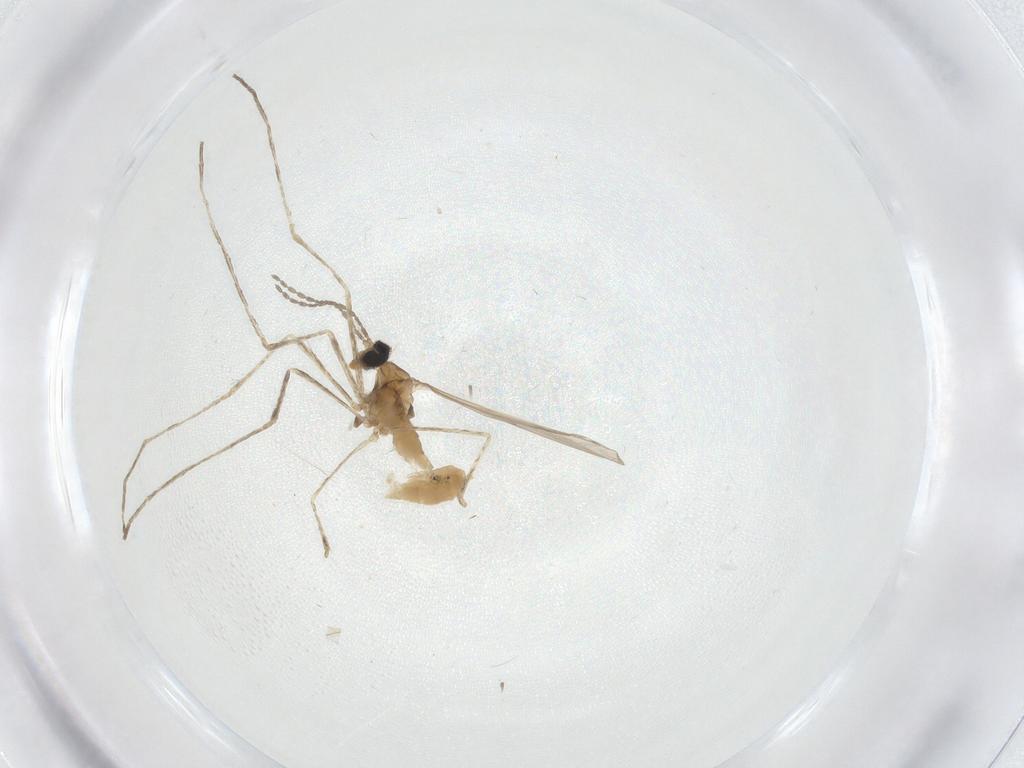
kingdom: Animalia
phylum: Arthropoda
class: Insecta
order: Diptera
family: Cecidomyiidae
